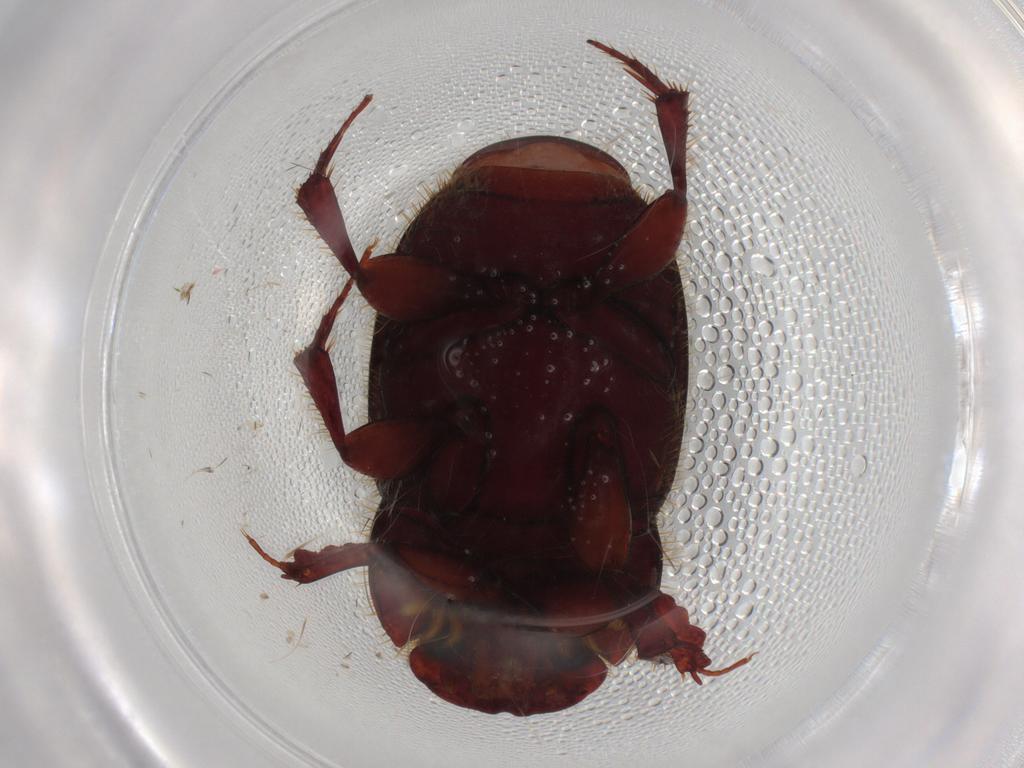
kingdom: Animalia
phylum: Arthropoda
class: Insecta
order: Coleoptera
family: Scarabaeidae
